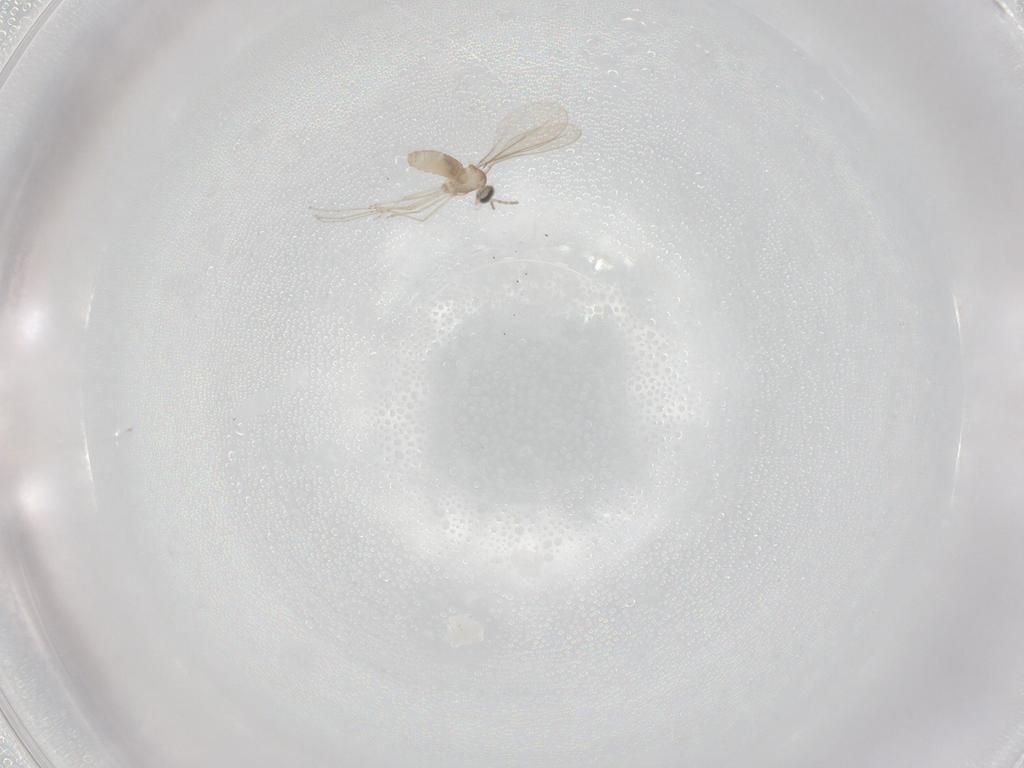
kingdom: Animalia
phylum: Arthropoda
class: Insecta
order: Diptera
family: Cecidomyiidae
